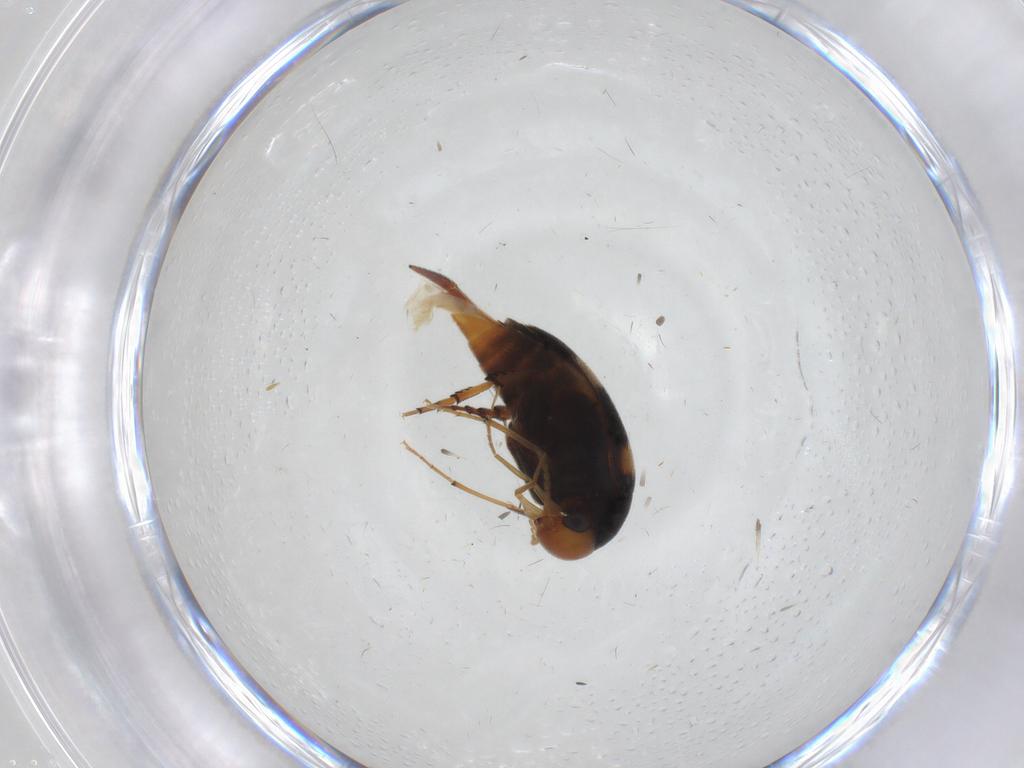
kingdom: Animalia
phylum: Arthropoda
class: Insecta
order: Coleoptera
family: Mordellidae
